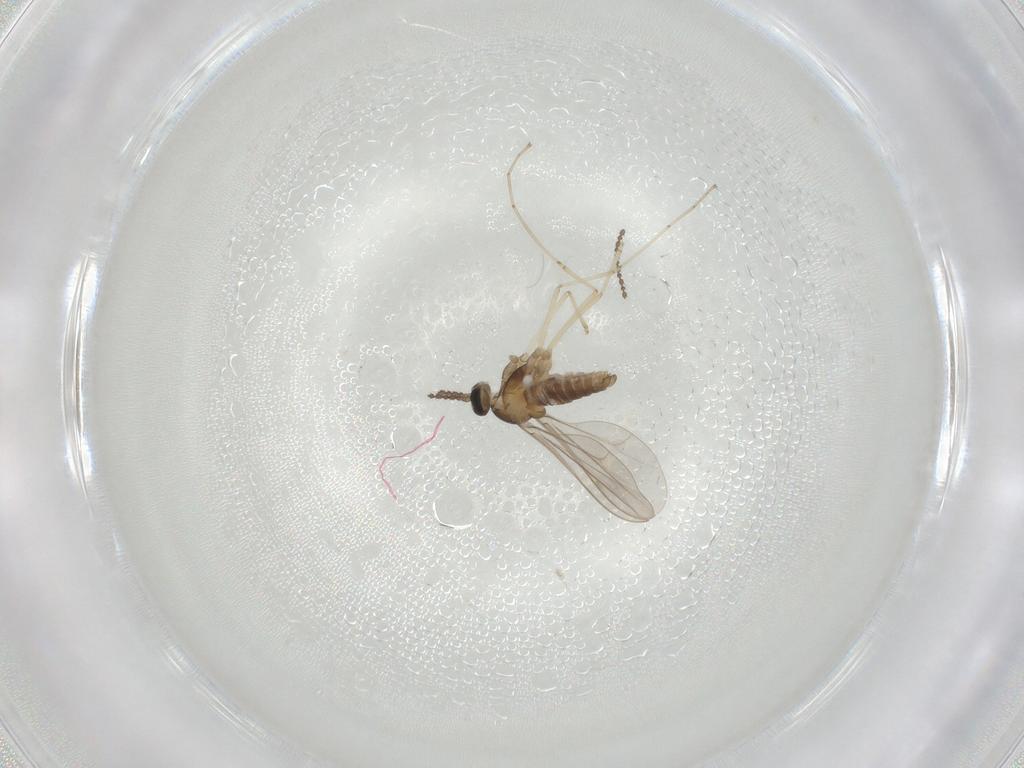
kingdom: Animalia
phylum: Arthropoda
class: Insecta
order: Diptera
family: Cecidomyiidae
